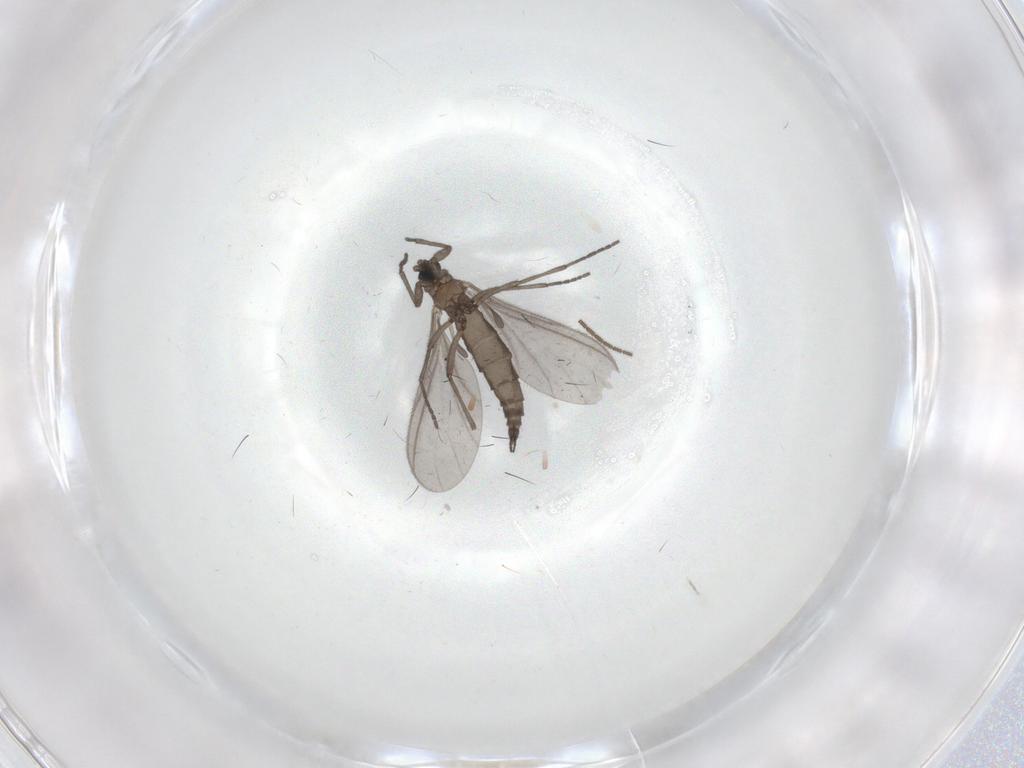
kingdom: Animalia
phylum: Arthropoda
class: Insecta
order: Diptera
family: Sciaridae
